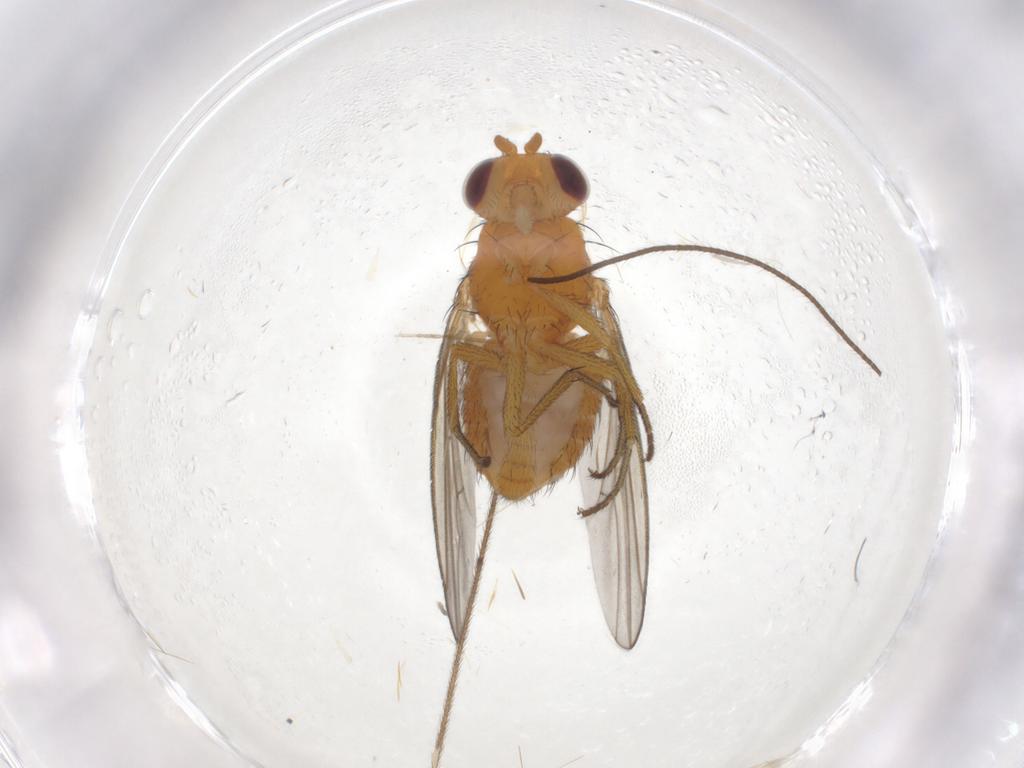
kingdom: Animalia
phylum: Arthropoda
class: Insecta
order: Diptera
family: Lauxaniidae
